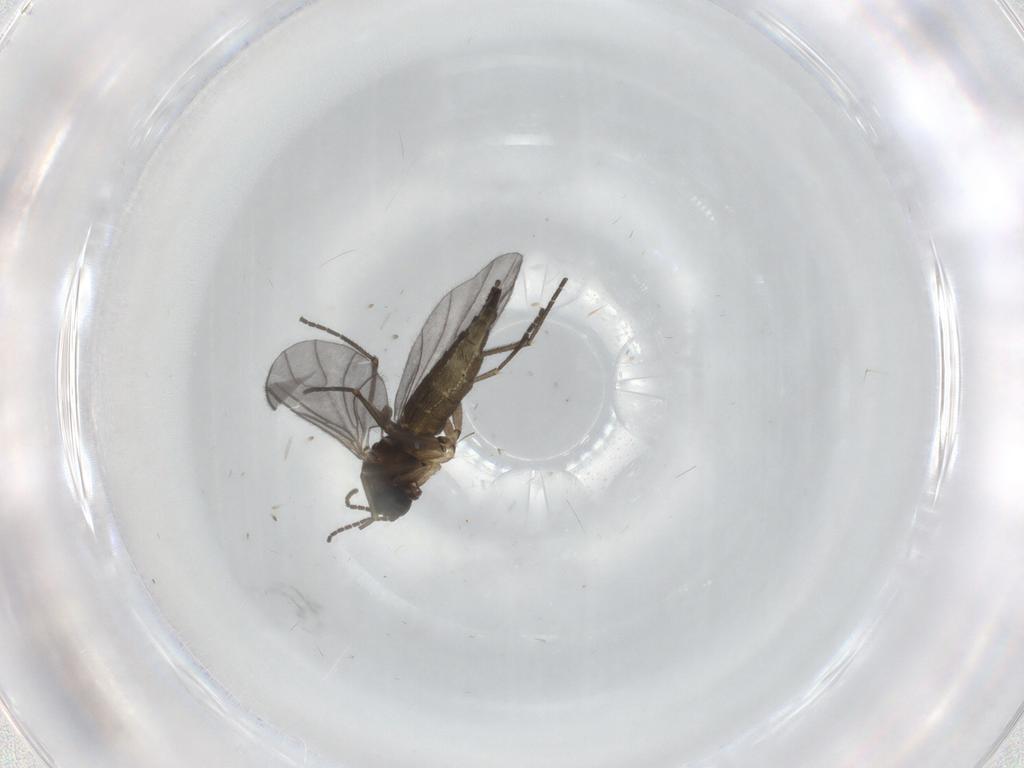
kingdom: Animalia
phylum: Arthropoda
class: Insecta
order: Diptera
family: Sciaridae
